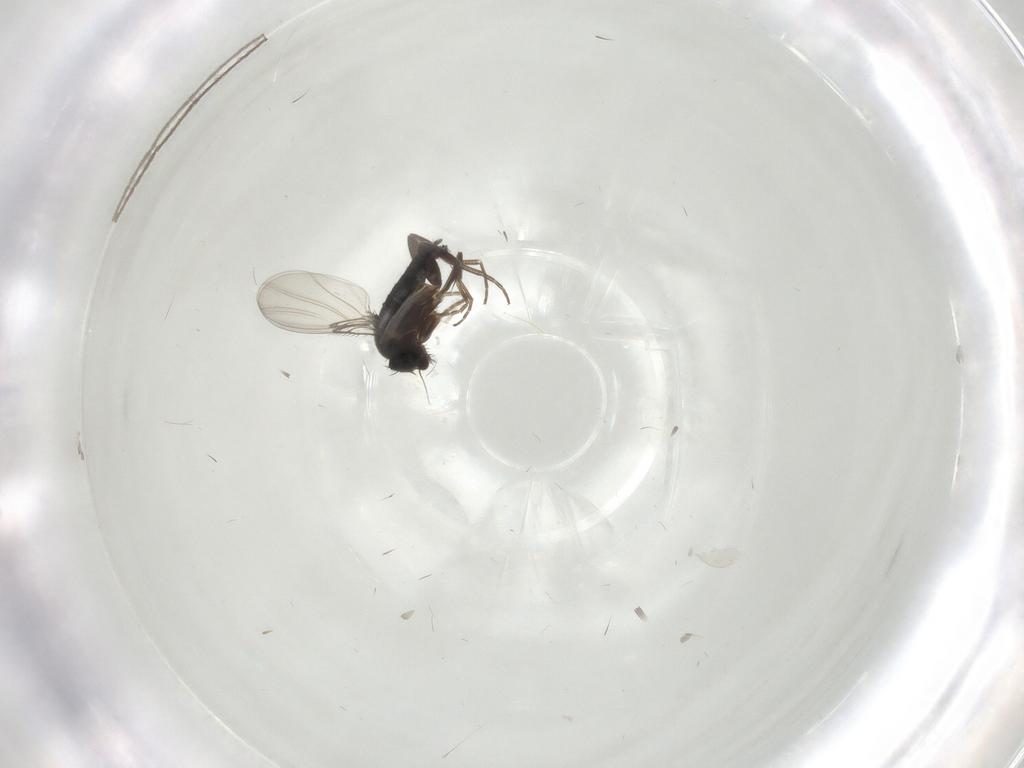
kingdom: Animalia
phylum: Arthropoda
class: Insecta
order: Diptera
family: Phoridae
